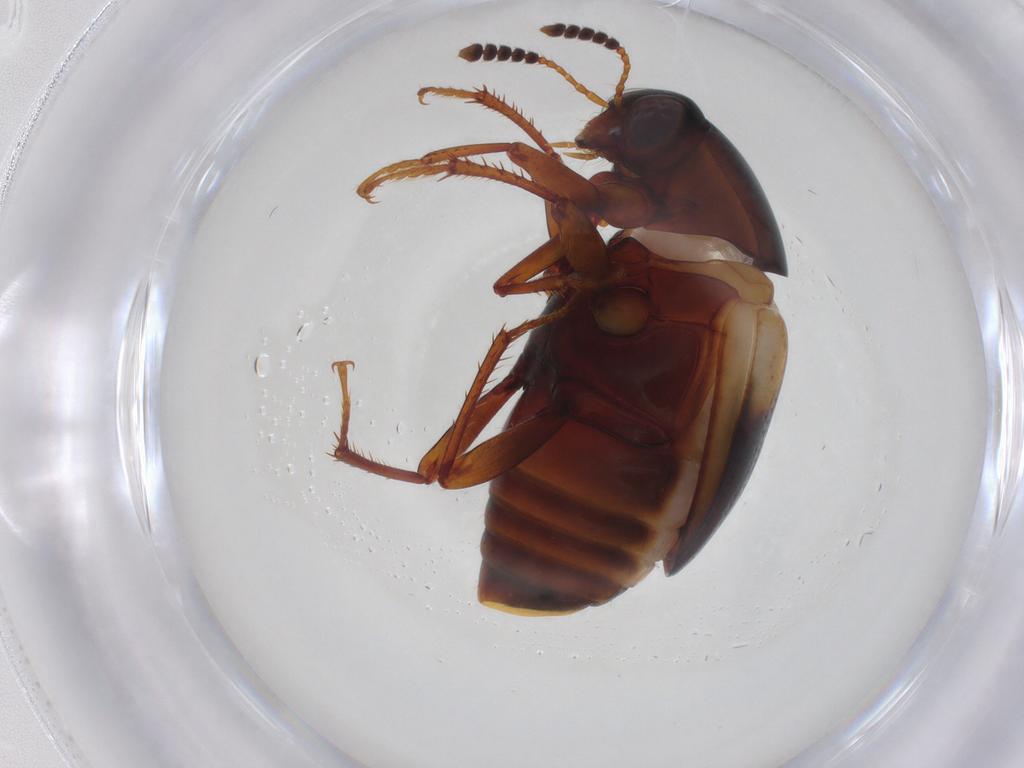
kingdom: Animalia
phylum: Arthropoda
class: Insecta
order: Coleoptera
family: Staphylinidae
